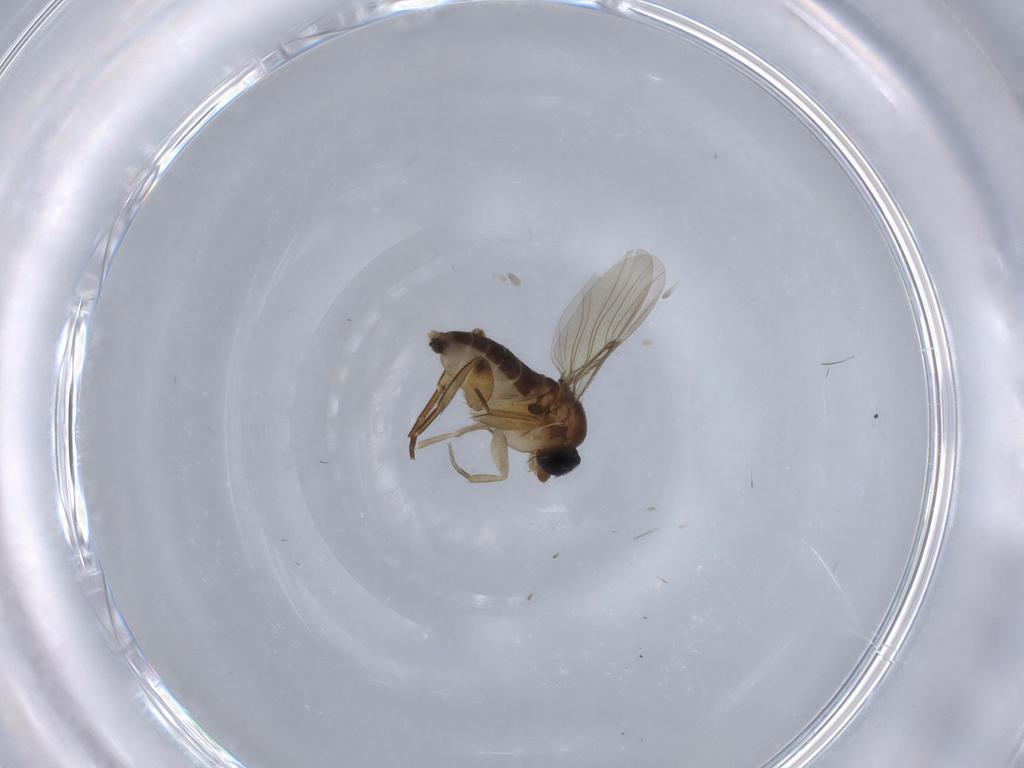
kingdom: Animalia
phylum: Arthropoda
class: Insecta
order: Diptera
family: Phoridae
